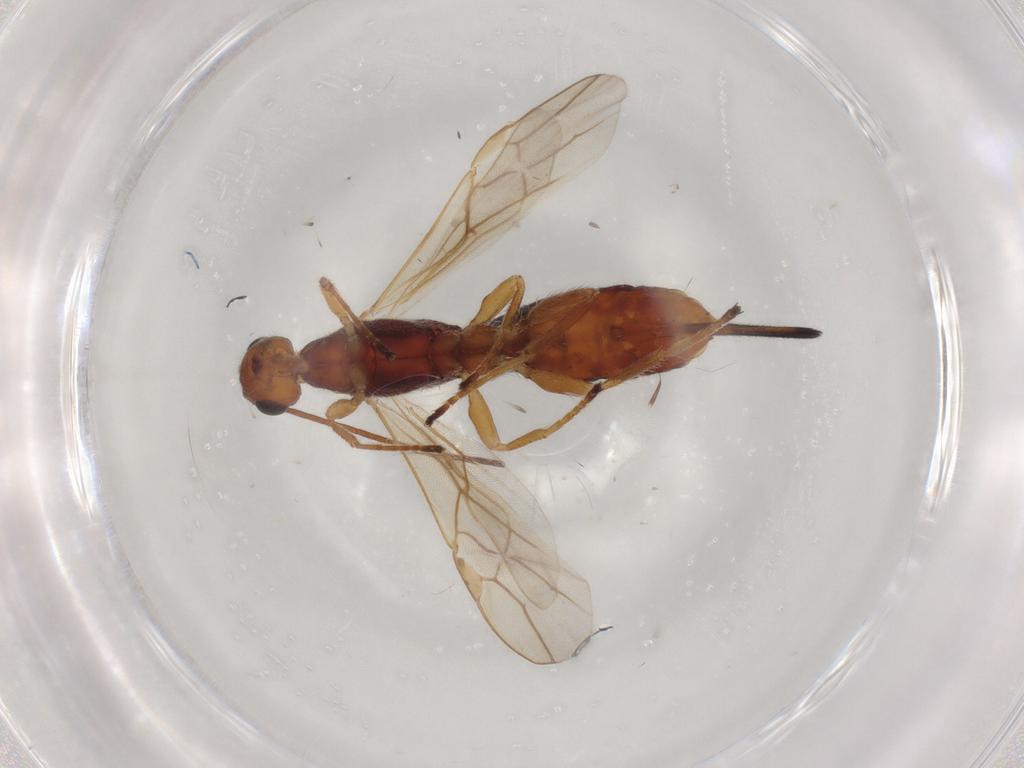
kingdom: Animalia
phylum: Arthropoda
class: Insecta
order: Hymenoptera
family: Braconidae
